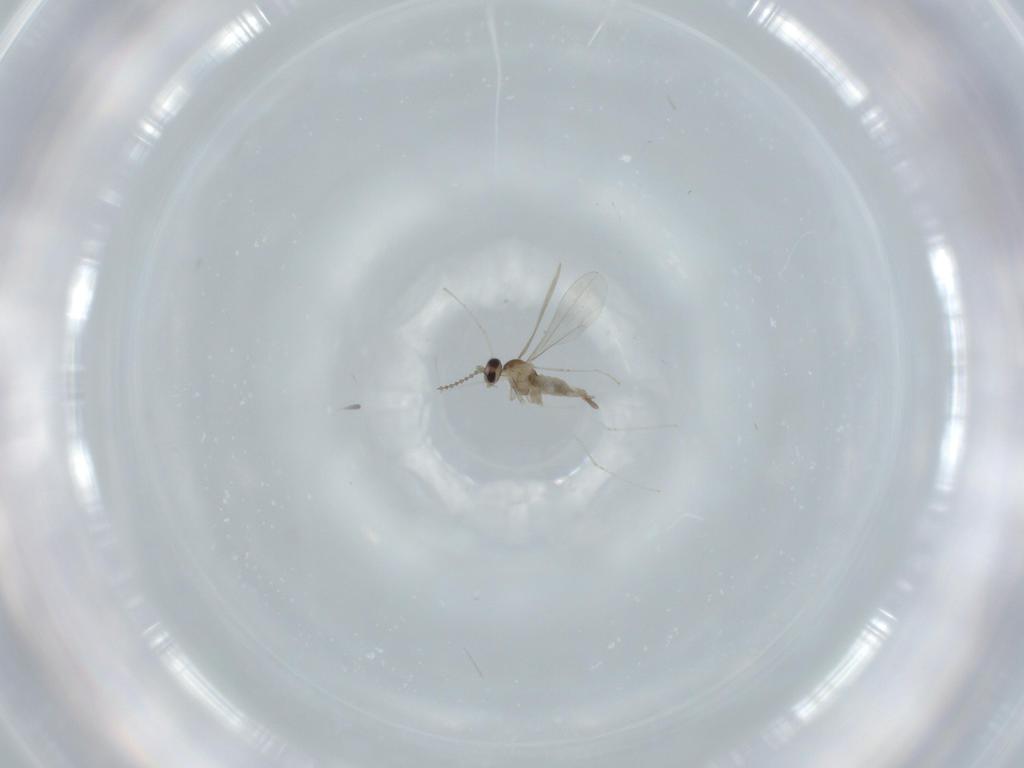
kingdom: Animalia
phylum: Arthropoda
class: Insecta
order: Diptera
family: Cecidomyiidae
